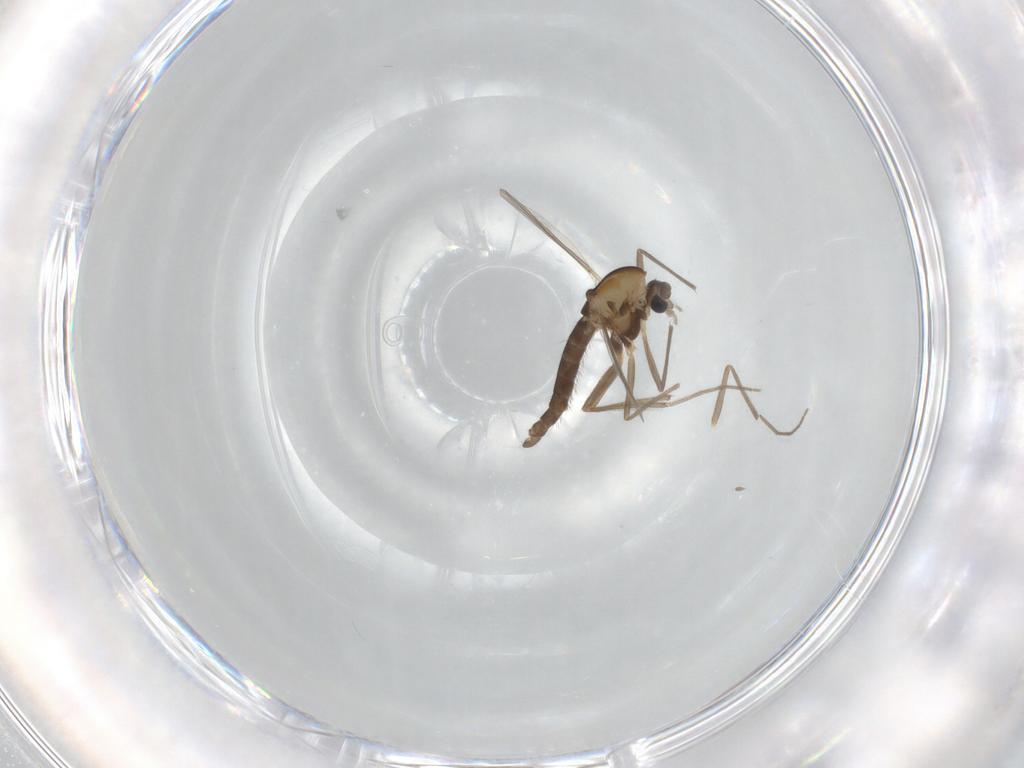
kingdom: Animalia
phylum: Arthropoda
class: Insecta
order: Diptera
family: Chironomidae
